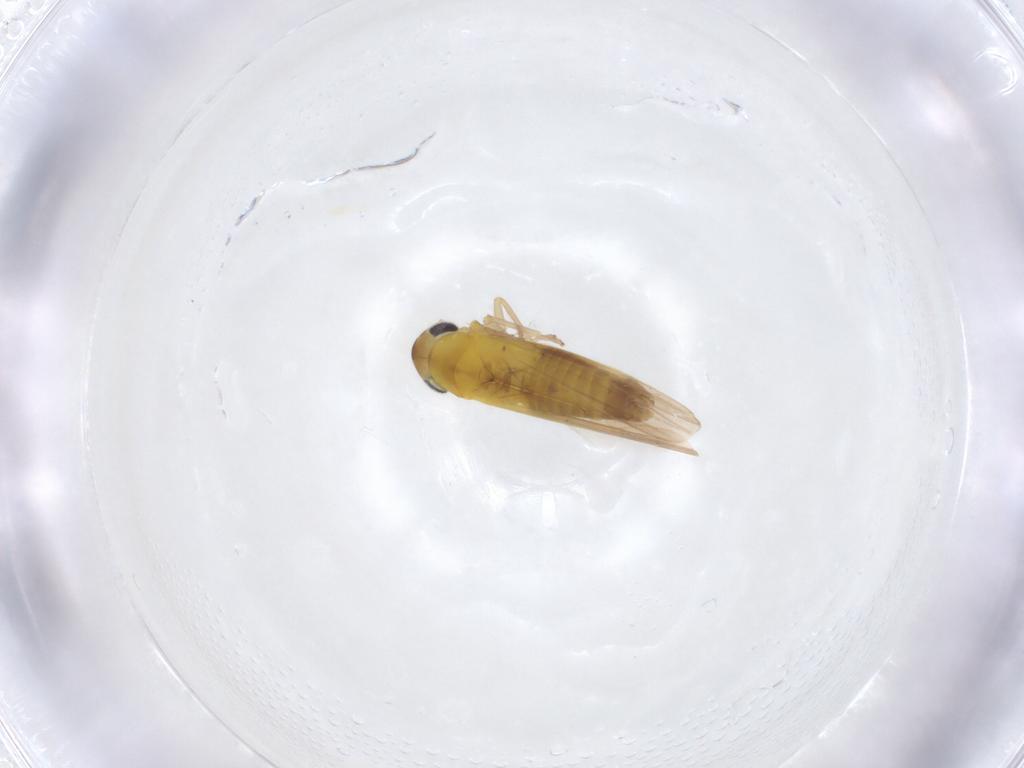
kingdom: Animalia
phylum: Arthropoda
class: Insecta
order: Hemiptera
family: Cicadellidae
